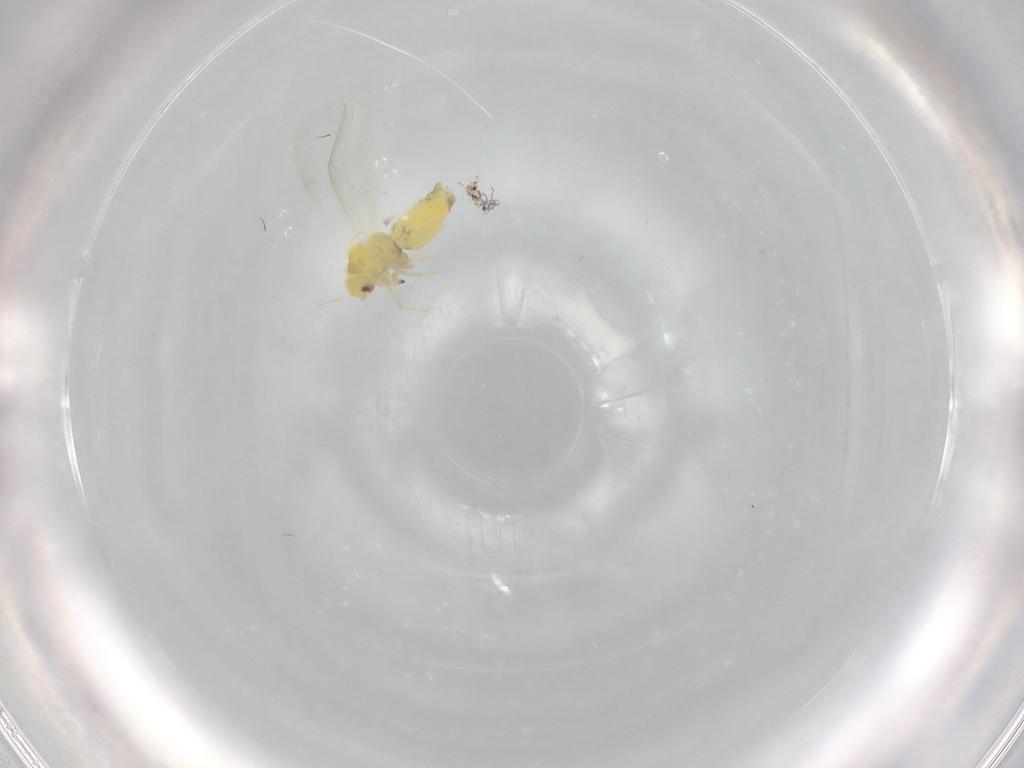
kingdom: Animalia
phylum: Arthropoda
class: Insecta
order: Hemiptera
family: Aleyrodidae
